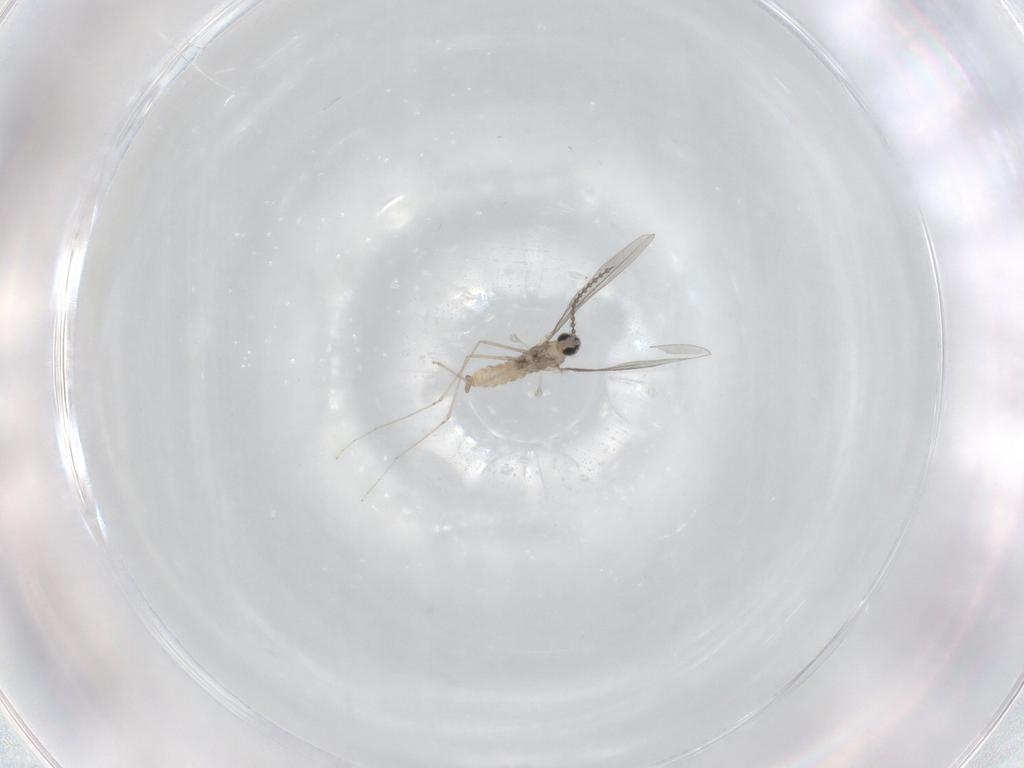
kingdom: Animalia
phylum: Arthropoda
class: Insecta
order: Diptera
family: Cecidomyiidae
